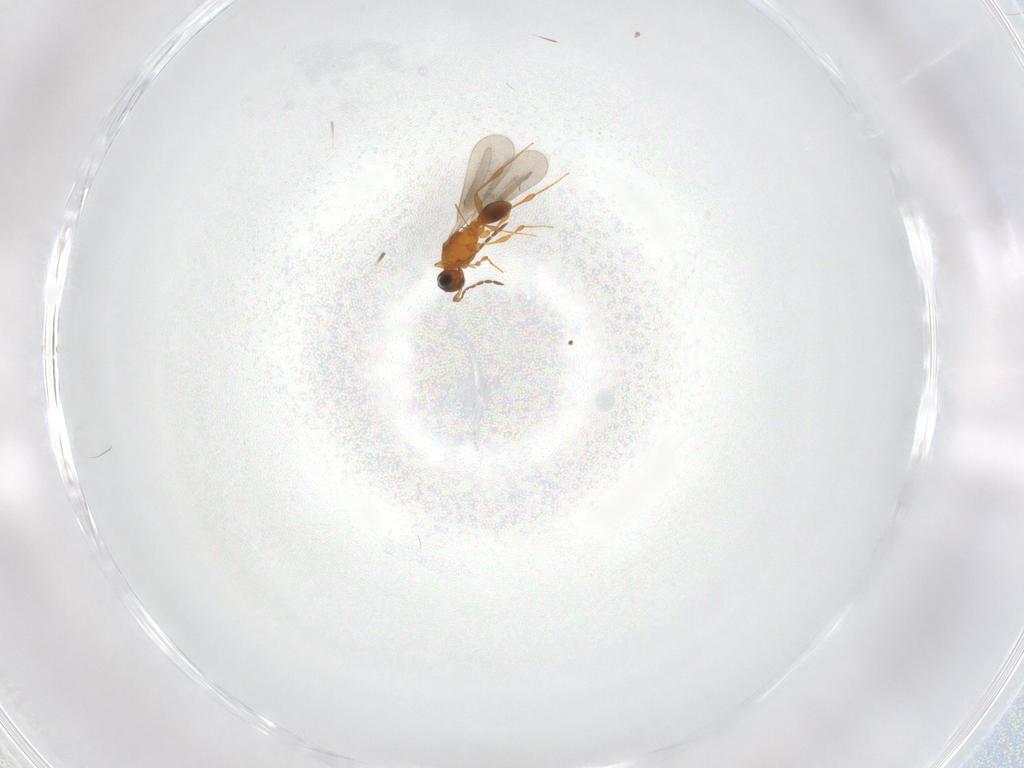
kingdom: Animalia
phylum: Arthropoda
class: Insecta
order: Hymenoptera
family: Platygastridae
